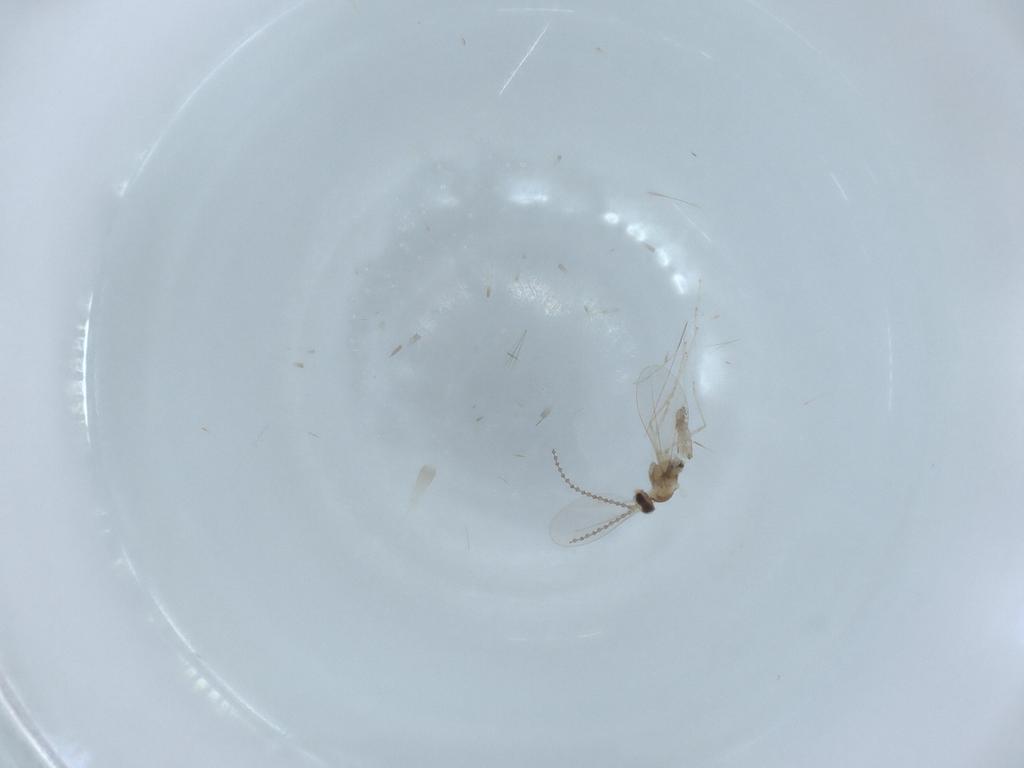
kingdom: Animalia
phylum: Arthropoda
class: Insecta
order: Diptera
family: Cecidomyiidae
